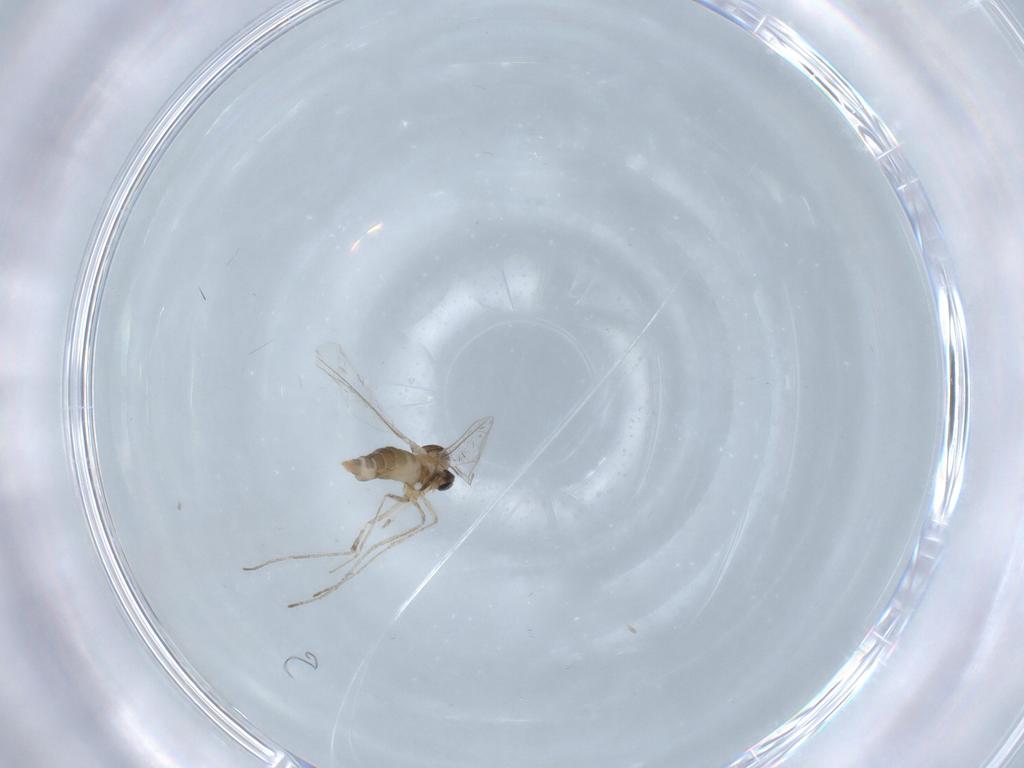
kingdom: Animalia
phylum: Arthropoda
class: Insecta
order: Diptera
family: Cecidomyiidae
